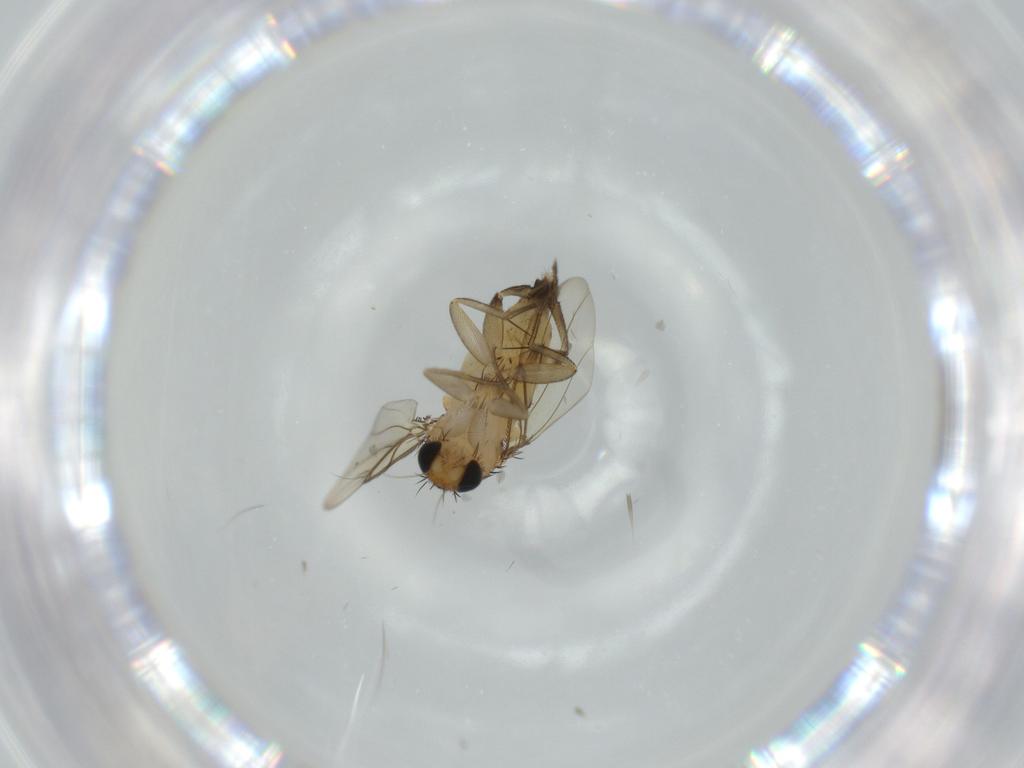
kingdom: Animalia
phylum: Arthropoda
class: Insecta
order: Diptera
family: Phoridae
